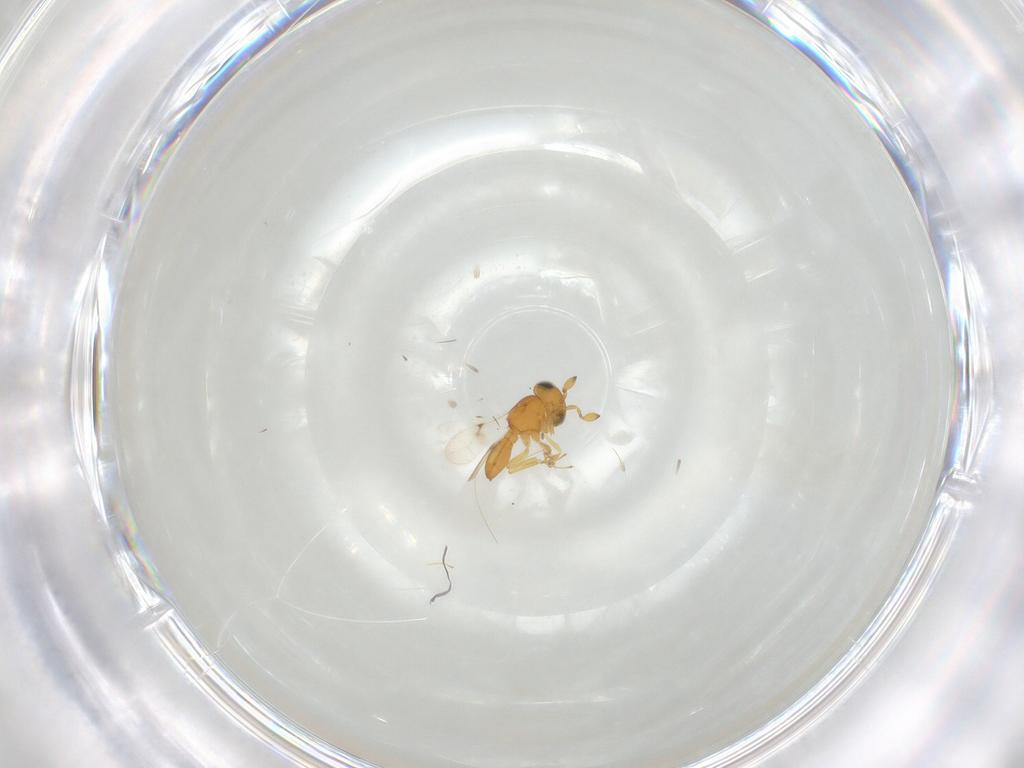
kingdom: Animalia
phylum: Arthropoda
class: Insecta
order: Hymenoptera
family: Scelionidae
